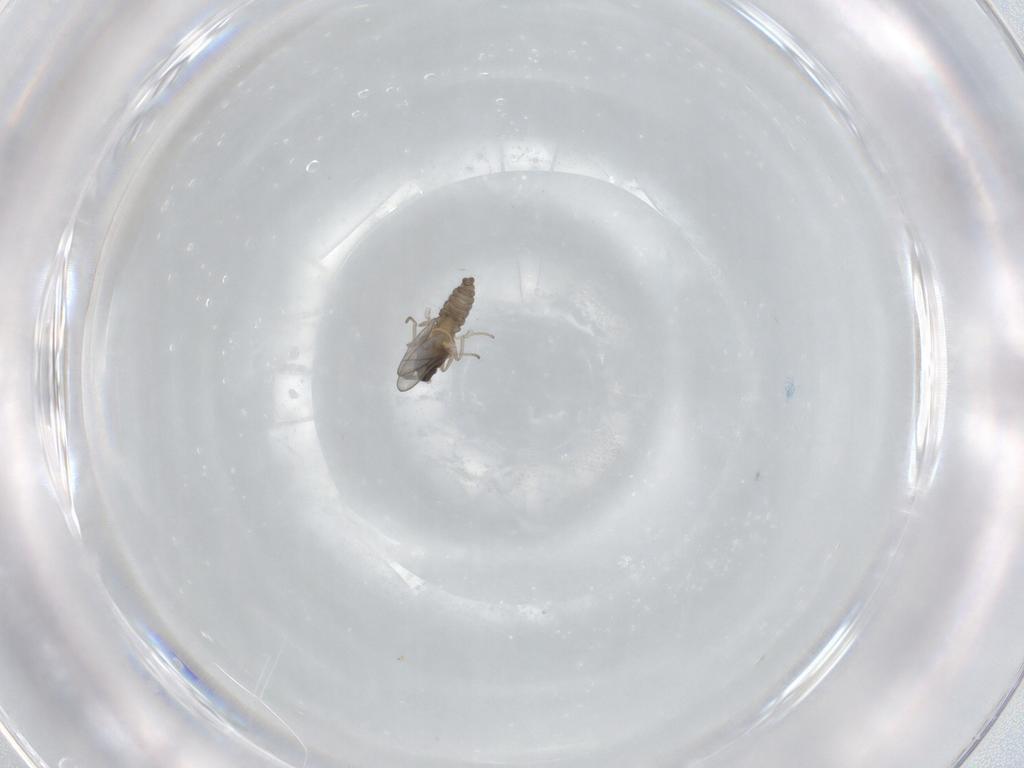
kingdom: Animalia
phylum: Arthropoda
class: Insecta
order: Diptera
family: Cecidomyiidae
